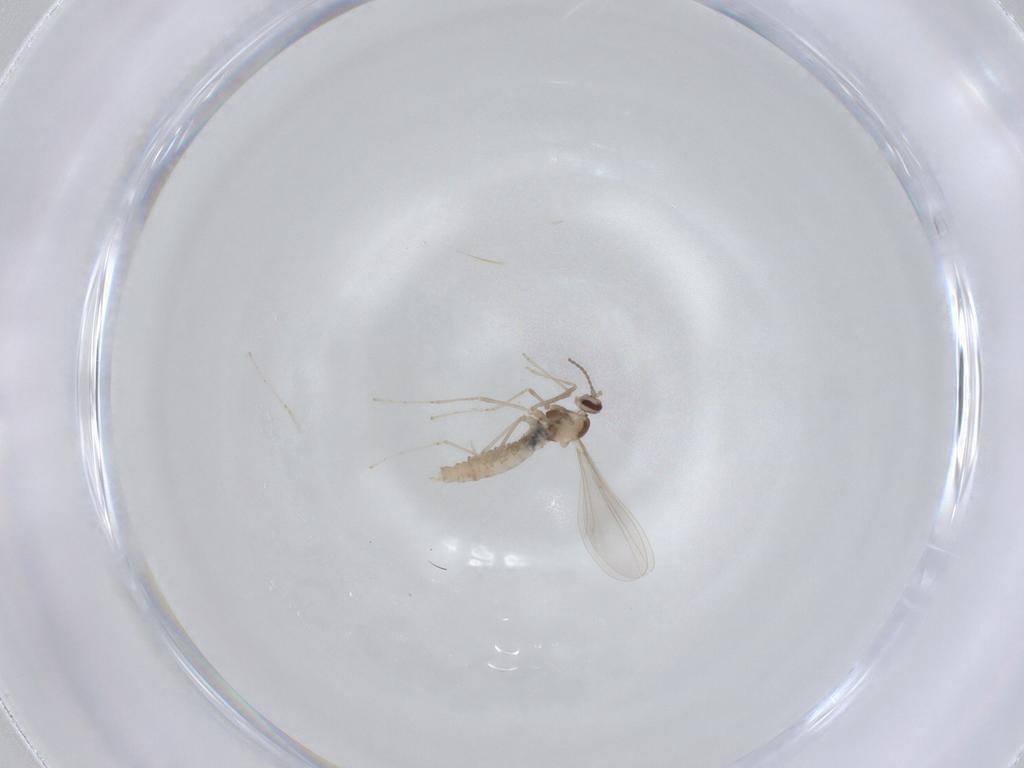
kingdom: Animalia
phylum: Arthropoda
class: Insecta
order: Diptera
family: Cecidomyiidae
